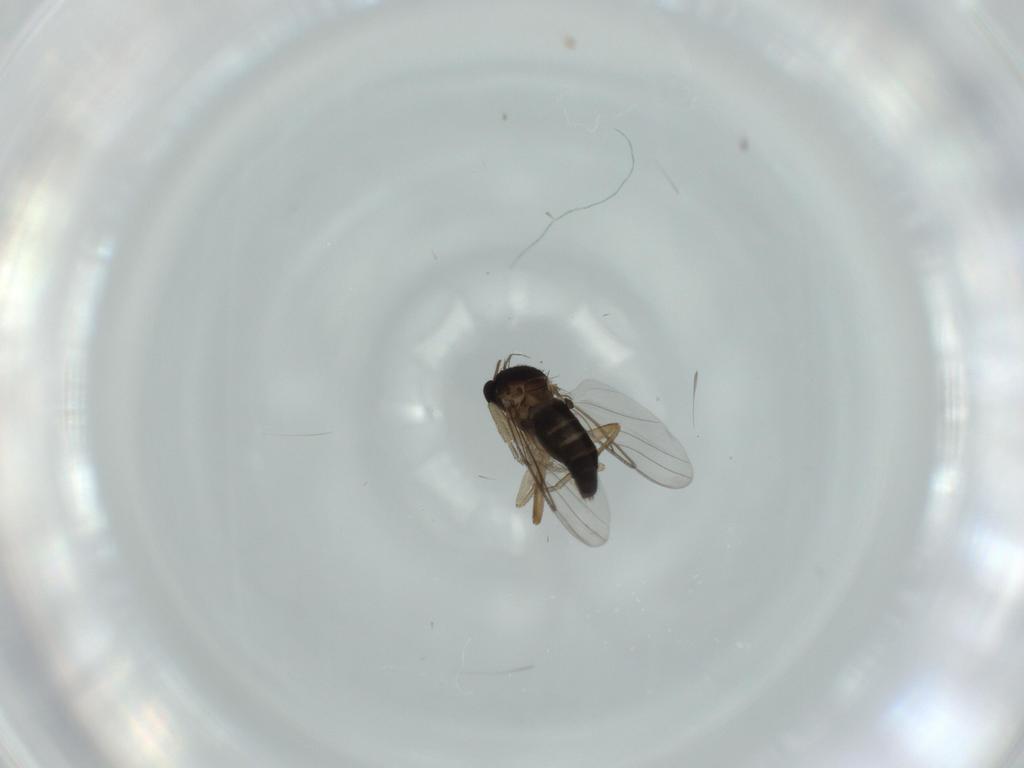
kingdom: Animalia
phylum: Arthropoda
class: Insecta
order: Diptera
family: Phoridae
